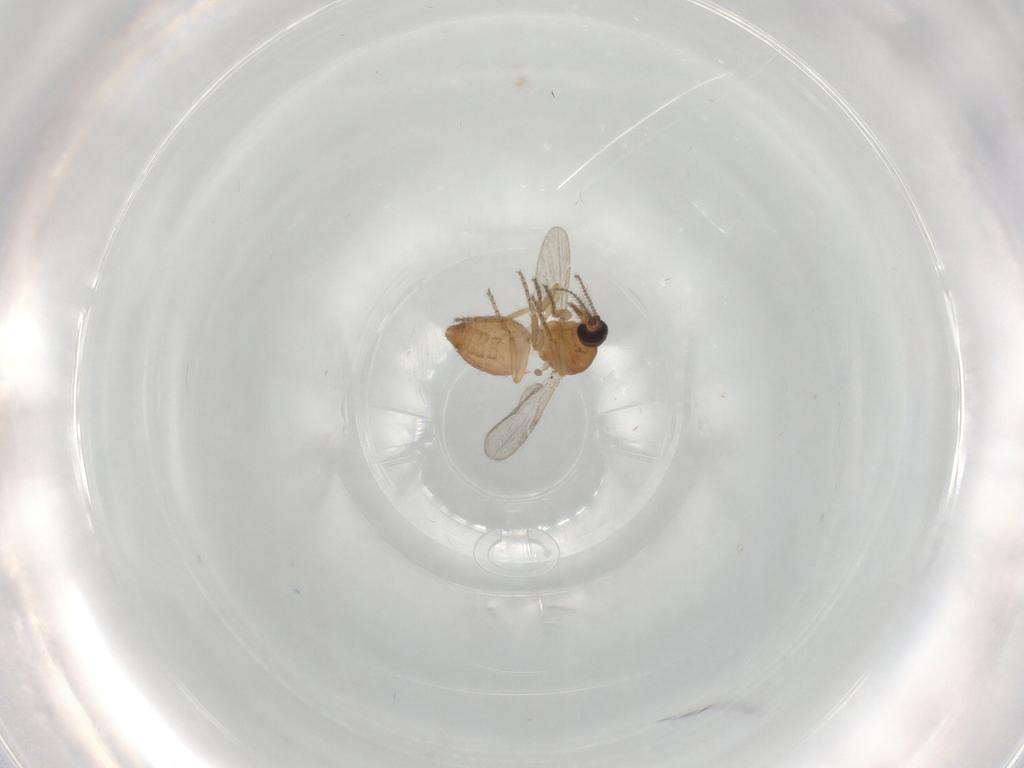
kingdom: Animalia
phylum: Arthropoda
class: Insecta
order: Diptera
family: Ceratopogonidae
